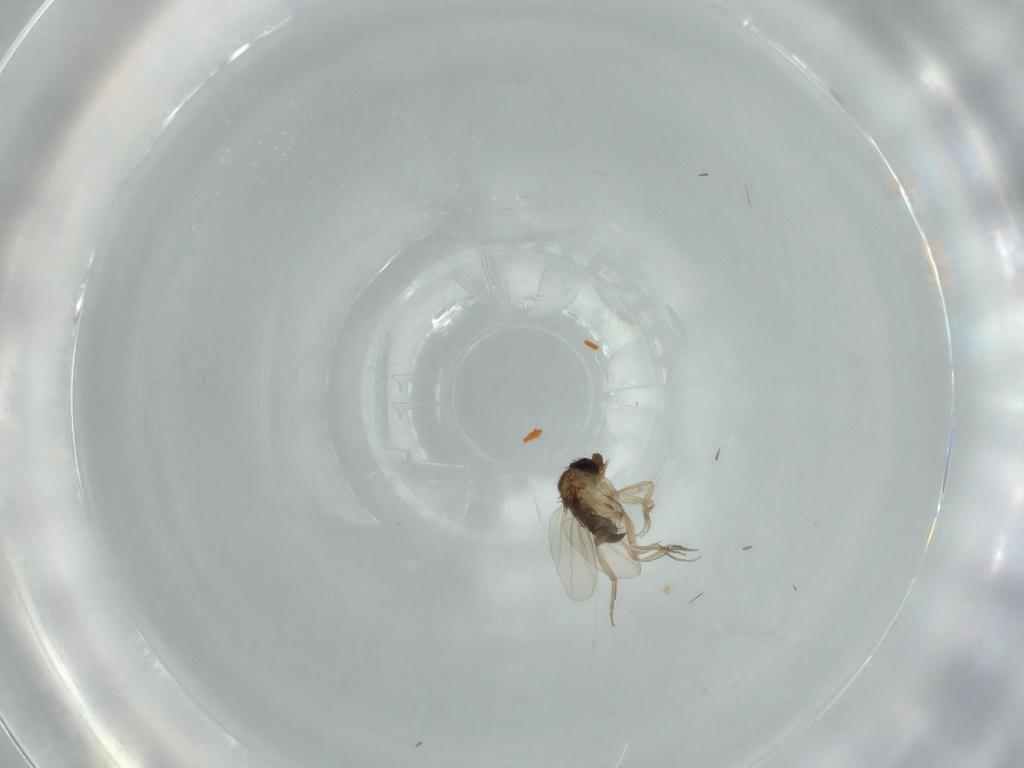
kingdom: Animalia
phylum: Arthropoda
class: Insecta
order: Diptera
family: Phoridae
